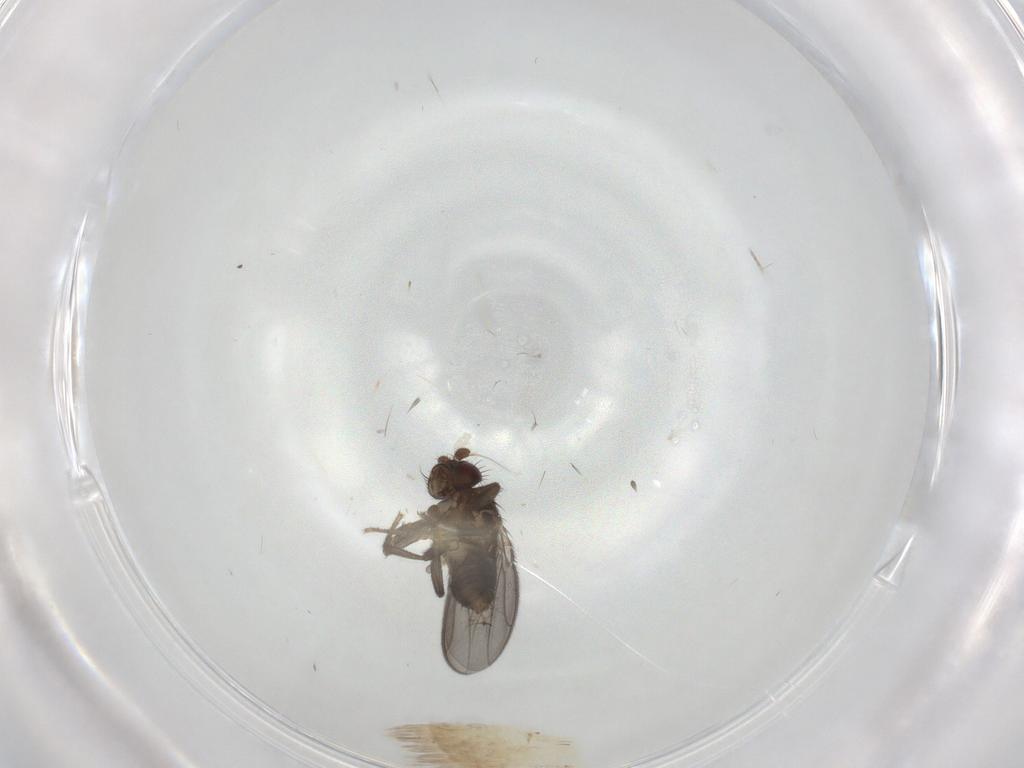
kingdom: Animalia
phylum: Arthropoda
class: Insecta
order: Diptera
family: Sphaeroceridae
